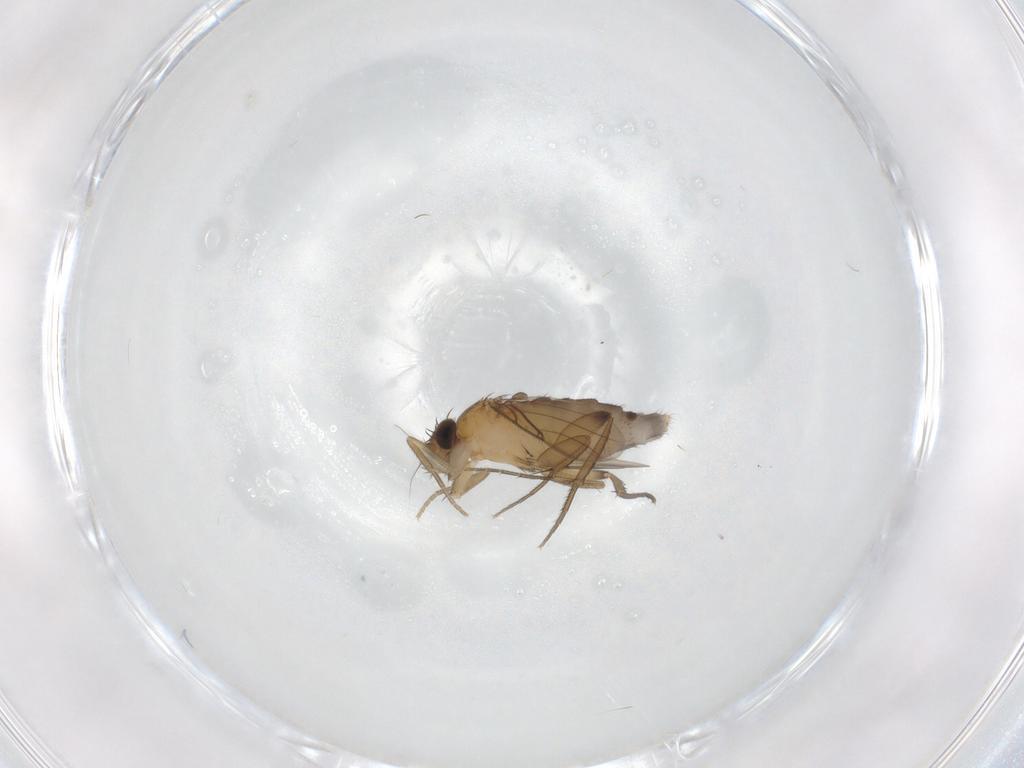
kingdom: Animalia
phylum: Arthropoda
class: Insecta
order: Diptera
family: Phoridae
